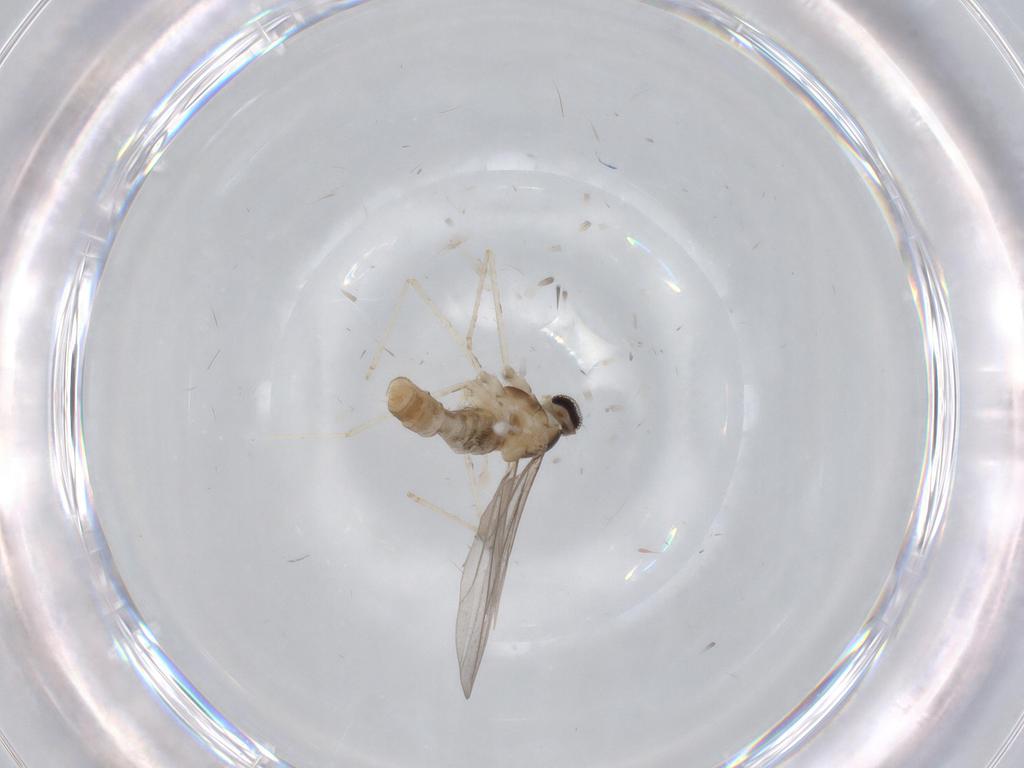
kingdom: Animalia
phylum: Arthropoda
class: Insecta
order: Diptera
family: Cecidomyiidae
